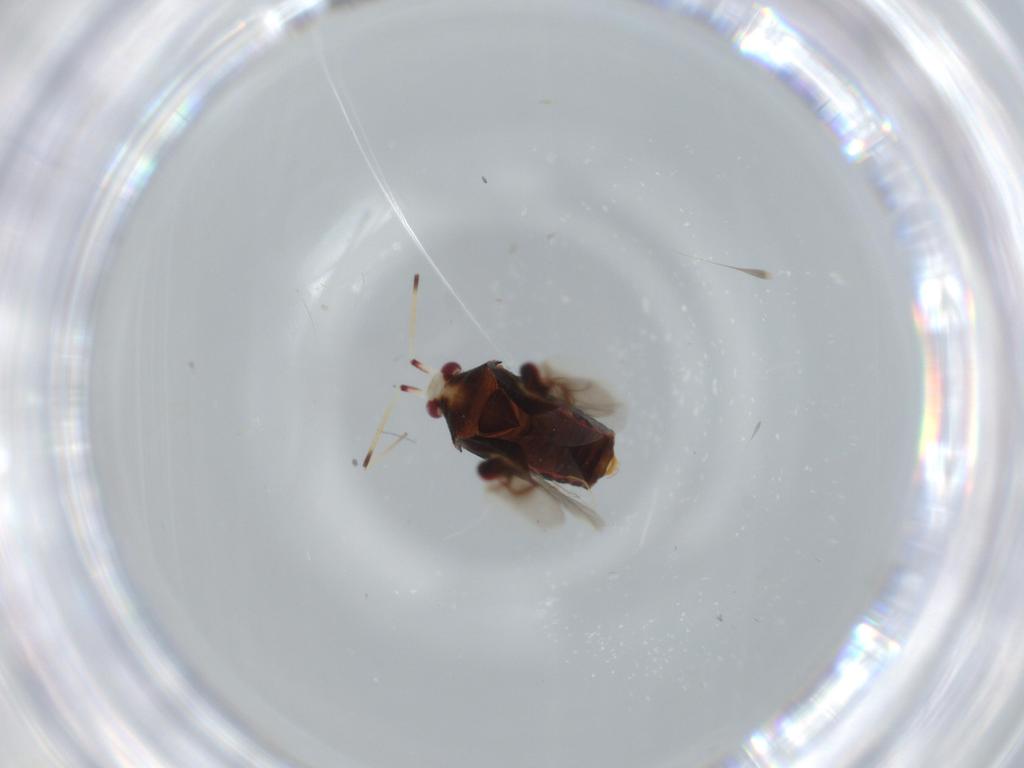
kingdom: Animalia
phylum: Arthropoda
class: Insecta
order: Hemiptera
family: Miridae
